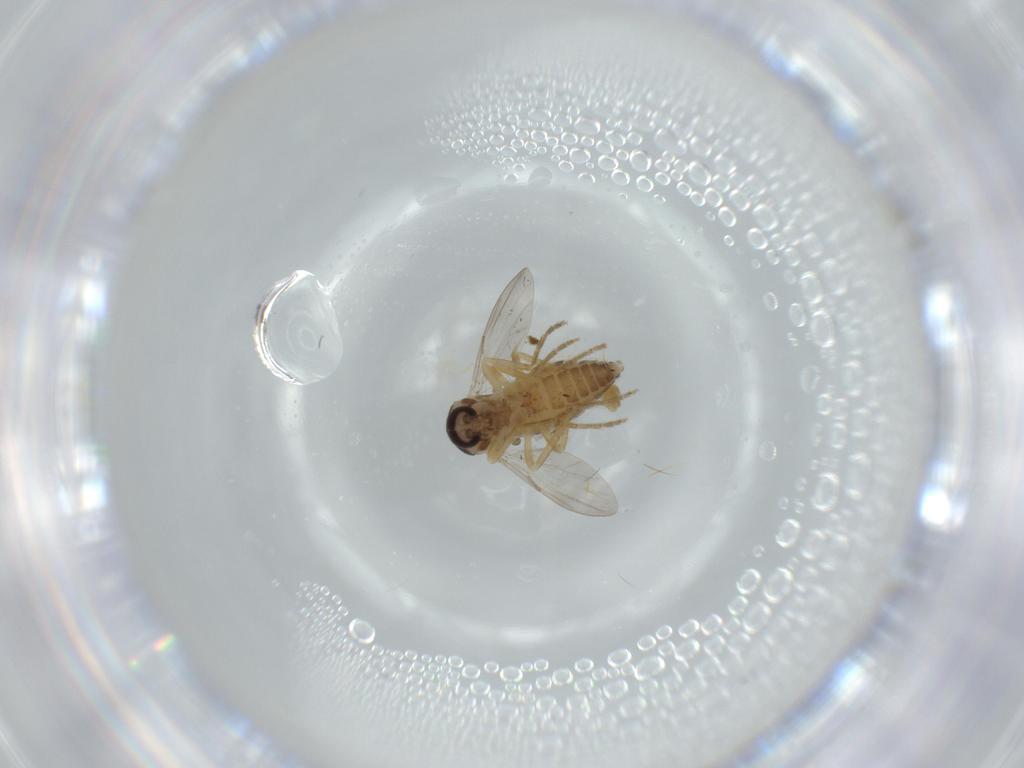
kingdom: Animalia
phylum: Arthropoda
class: Insecta
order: Diptera
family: Ceratopogonidae
